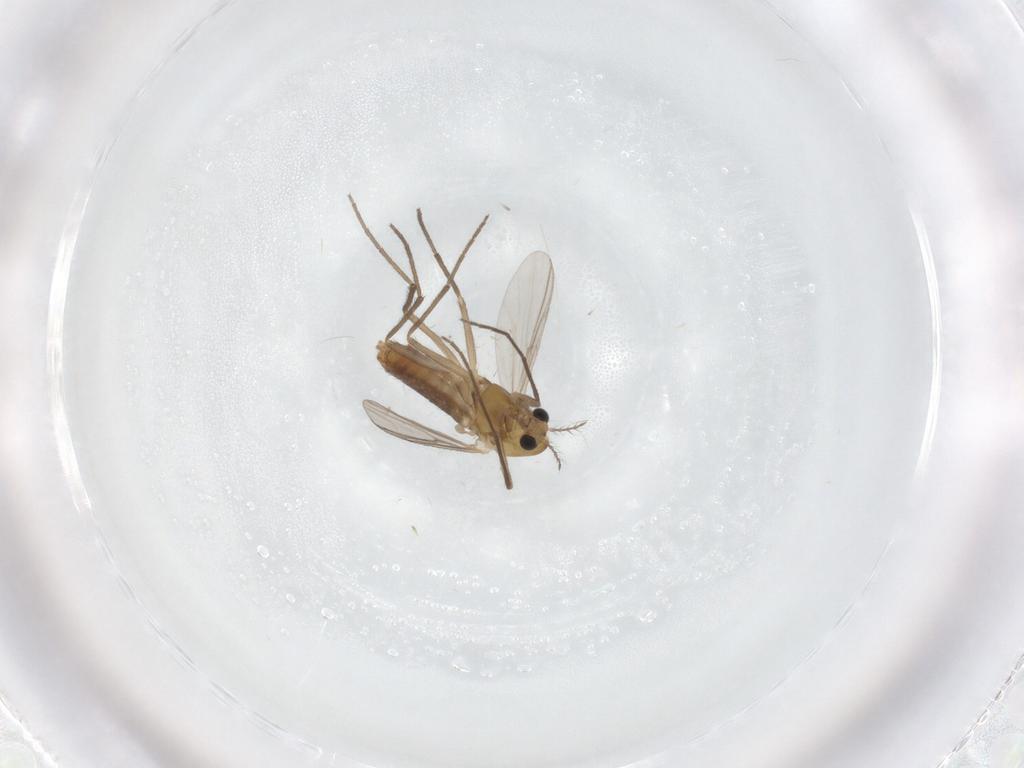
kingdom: Animalia
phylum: Arthropoda
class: Insecta
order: Diptera
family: Chironomidae
